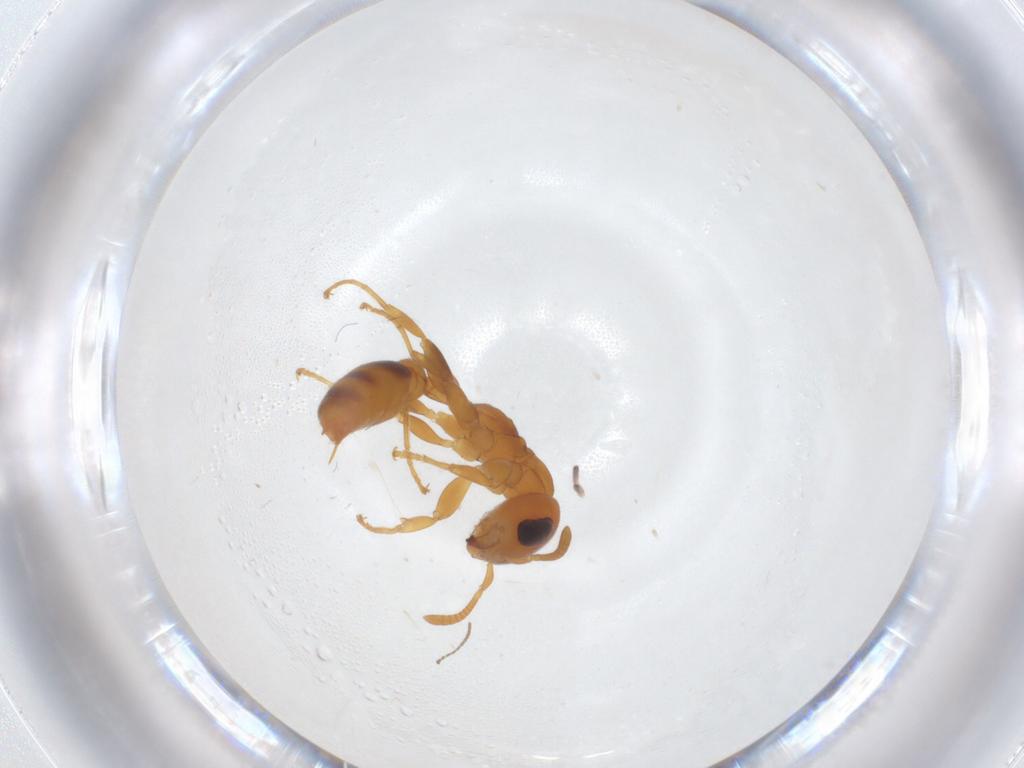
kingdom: Animalia
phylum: Arthropoda
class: Insecta
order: Hymenoptera
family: Formicidae
